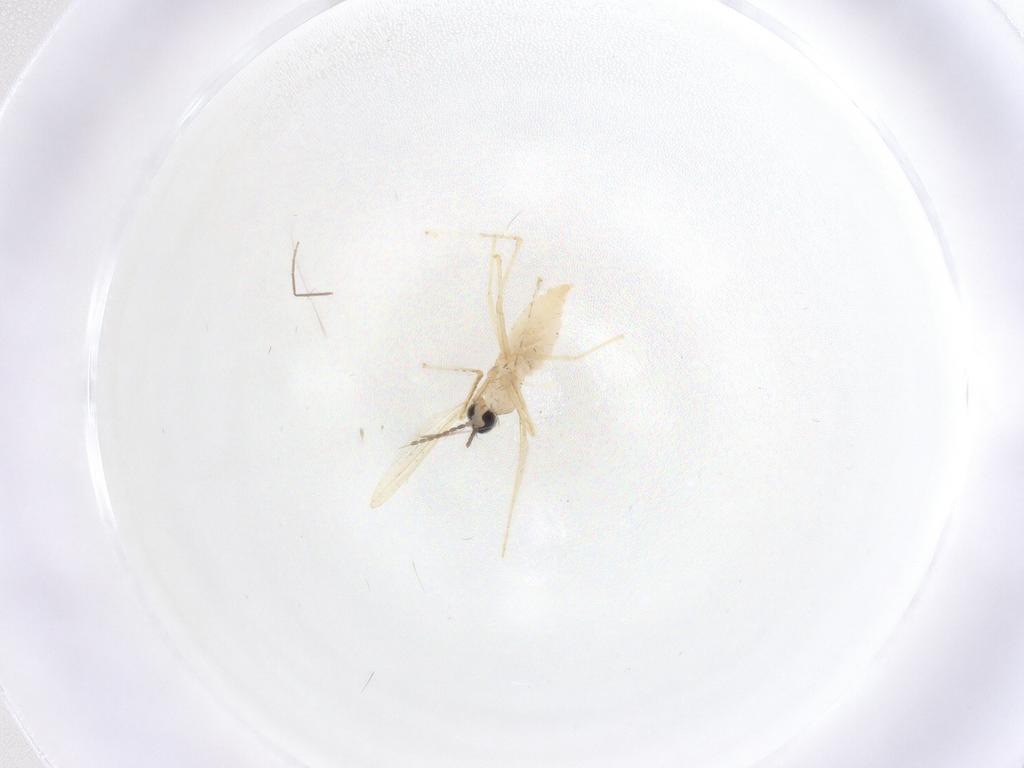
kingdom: Animalia
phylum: Arthropoda
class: Insecta
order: Diptera
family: Cecidomyiidae
